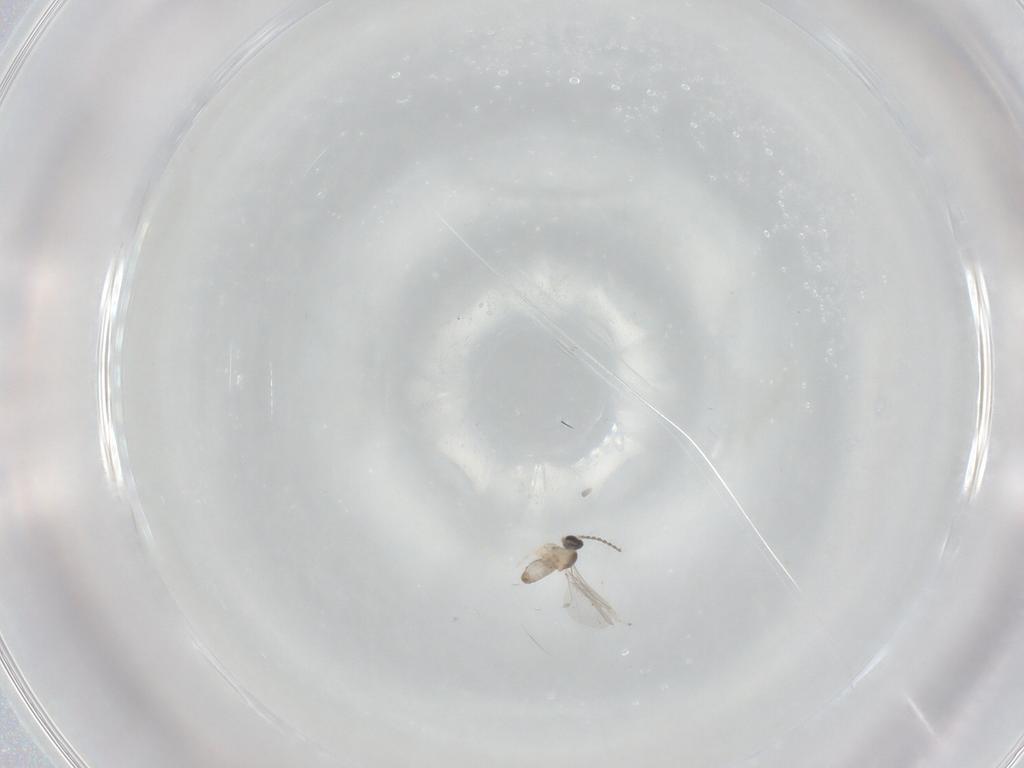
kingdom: Animalia
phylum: Arthropoda
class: Insecta
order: Diptera
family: Cecidomyiidae
